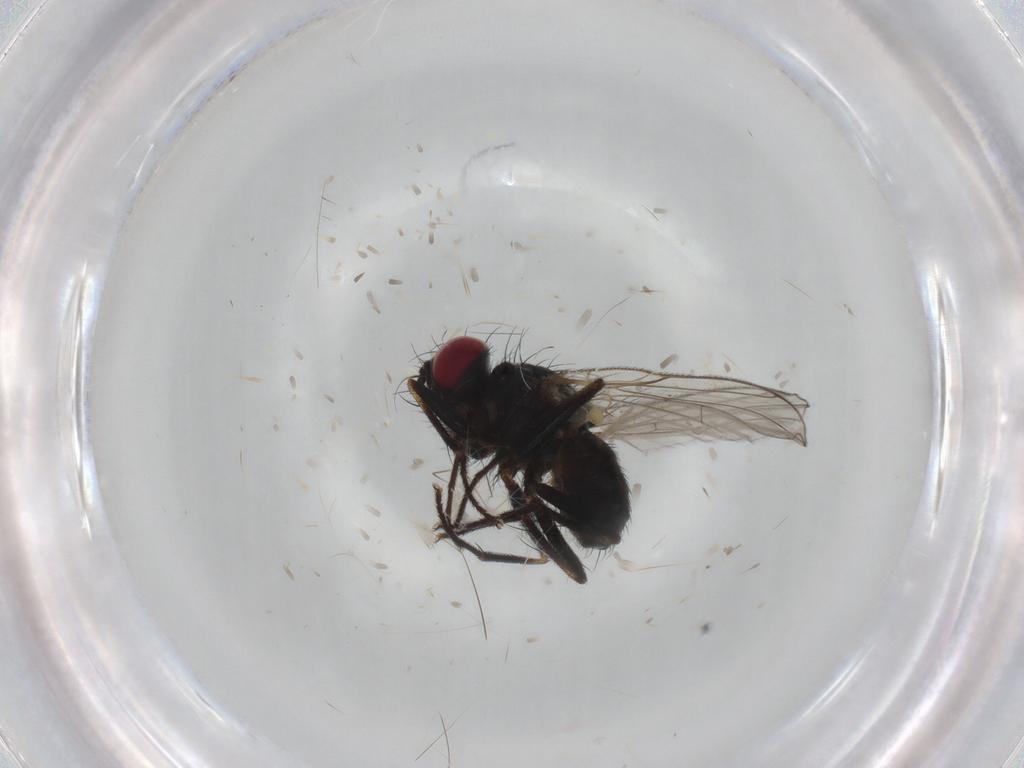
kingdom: Animalia
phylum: Arthropoda
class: Insecta
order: Diptera
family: Muscidae
